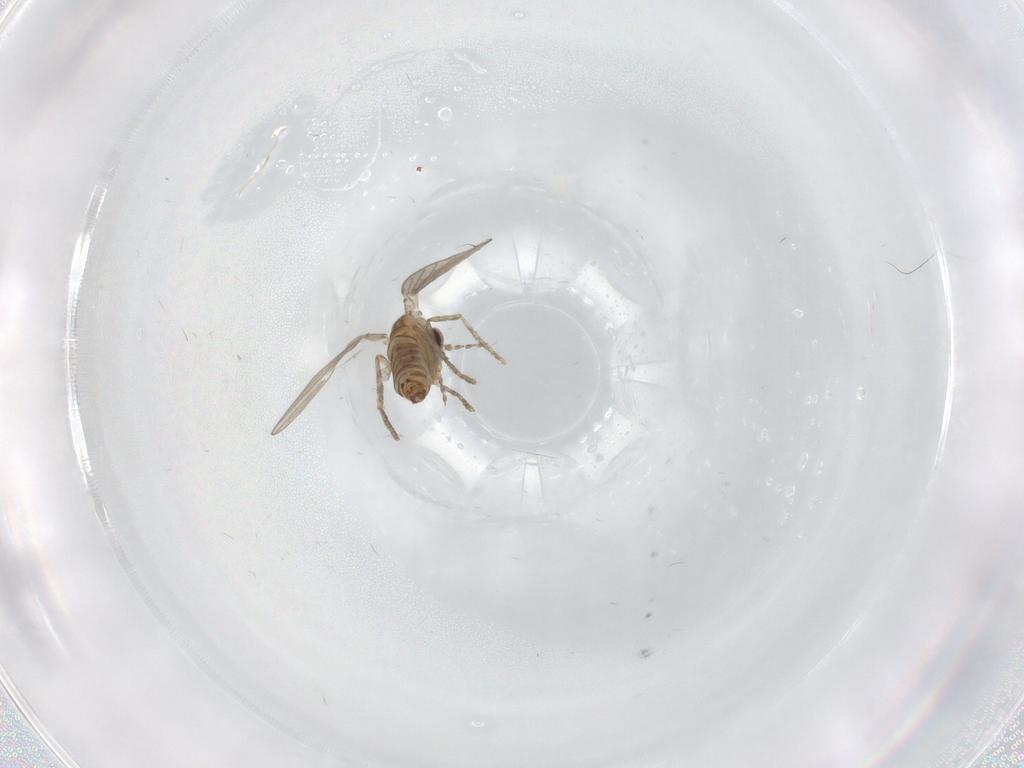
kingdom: Animalia
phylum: Arthropoda
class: Insecta
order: Diptera
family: Psychodidae
